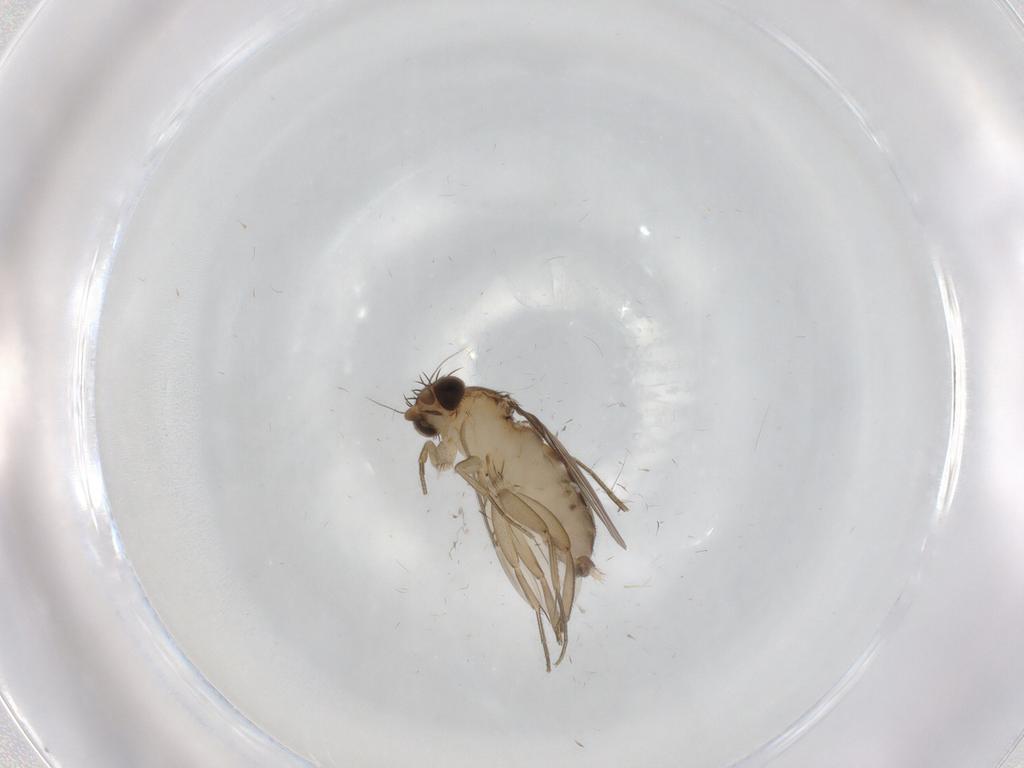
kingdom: Animalia
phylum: Arthropoda
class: Insecta
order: Diptera
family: Phoridae
